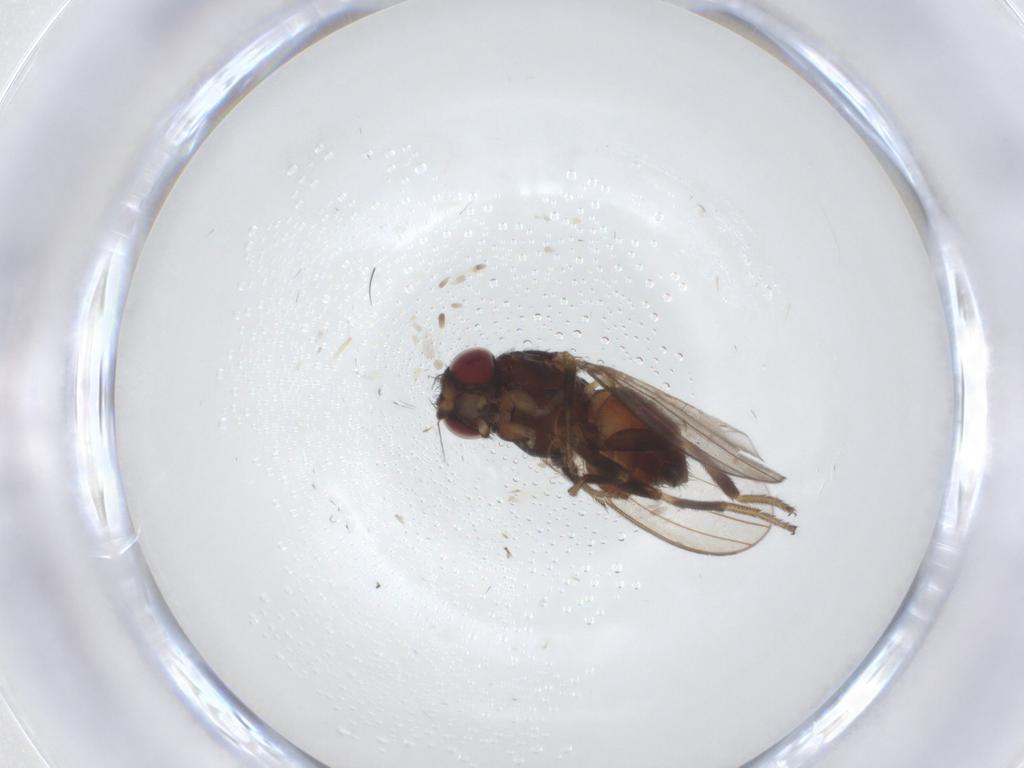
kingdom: Animalia
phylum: Arthropoda
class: Insecta
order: Diptera
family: Milichiidae
